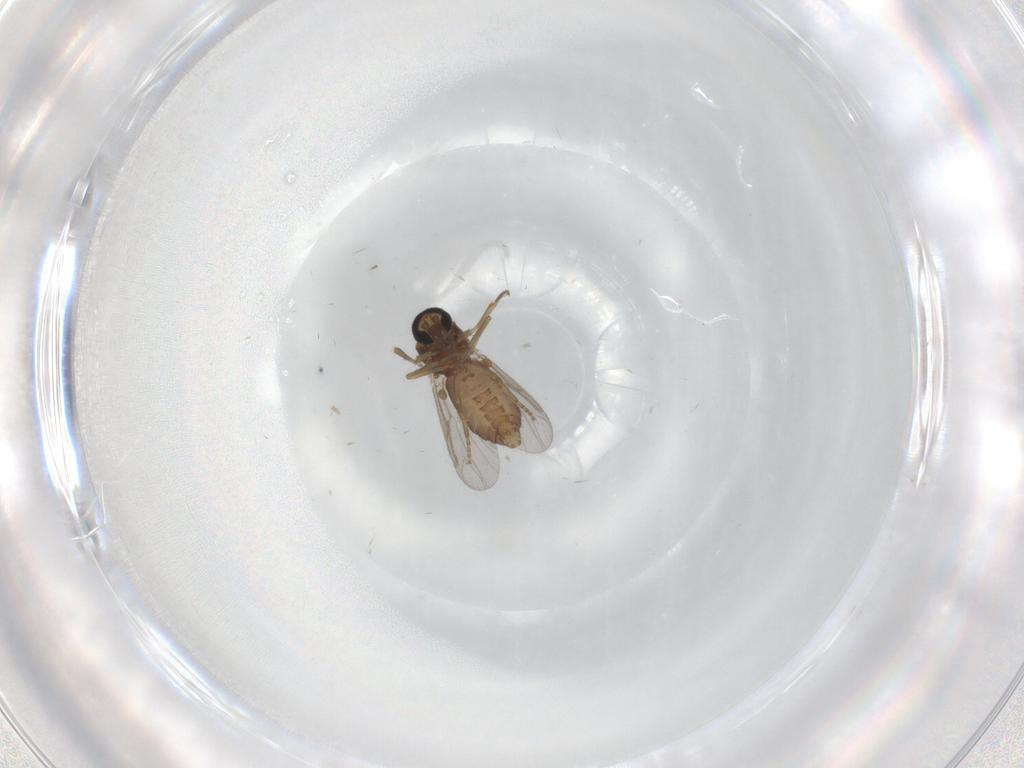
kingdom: Animalia
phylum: Arthropoda
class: Insecta
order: Diptera
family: Ceratopogonidae
